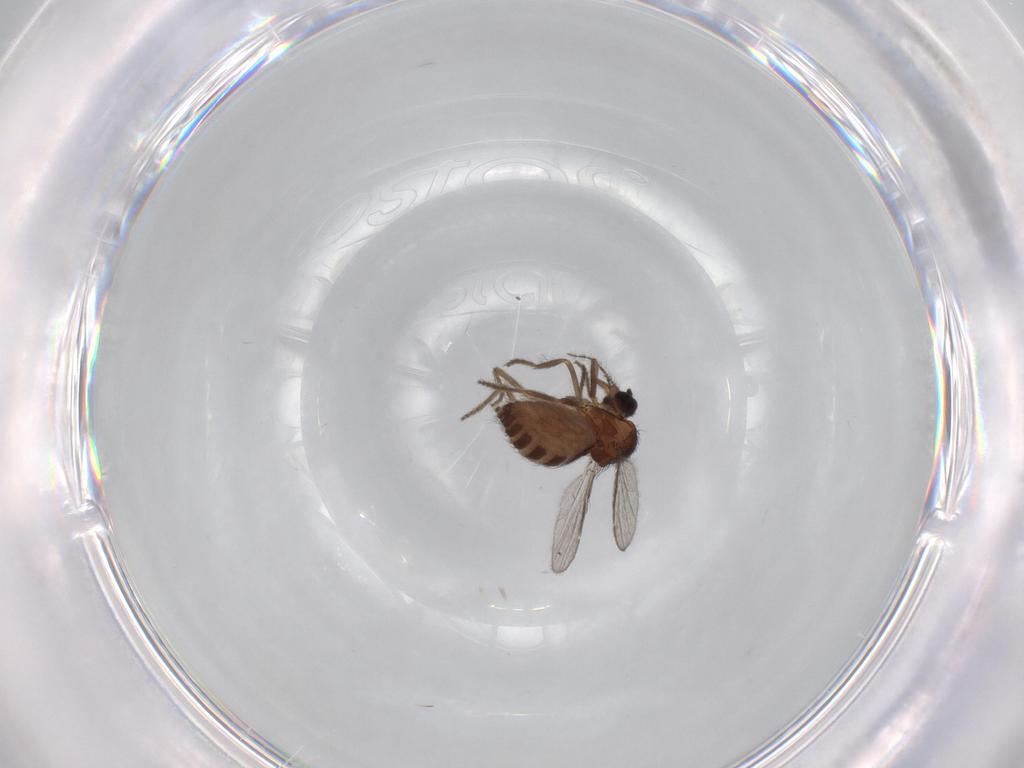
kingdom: Animalia
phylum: Arthropoda
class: Insecta
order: Diptera
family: Ceratopogonidae
